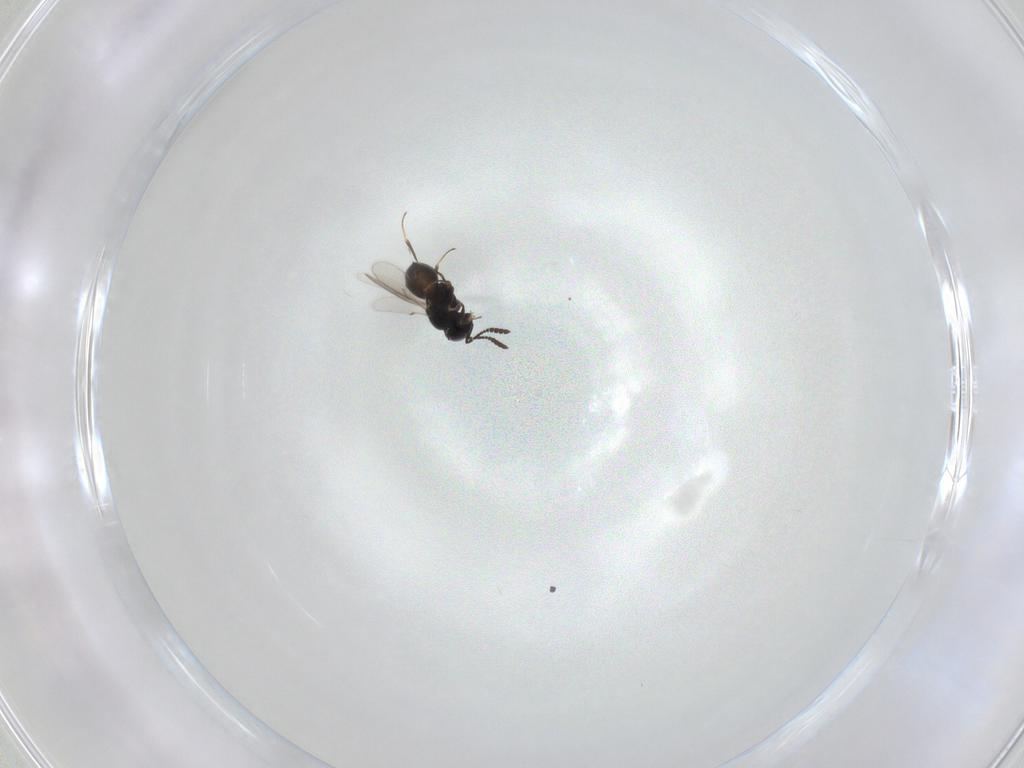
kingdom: Animalia
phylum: Arthropoda
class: Insecta
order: Hymenoptera
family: Scelionidae
